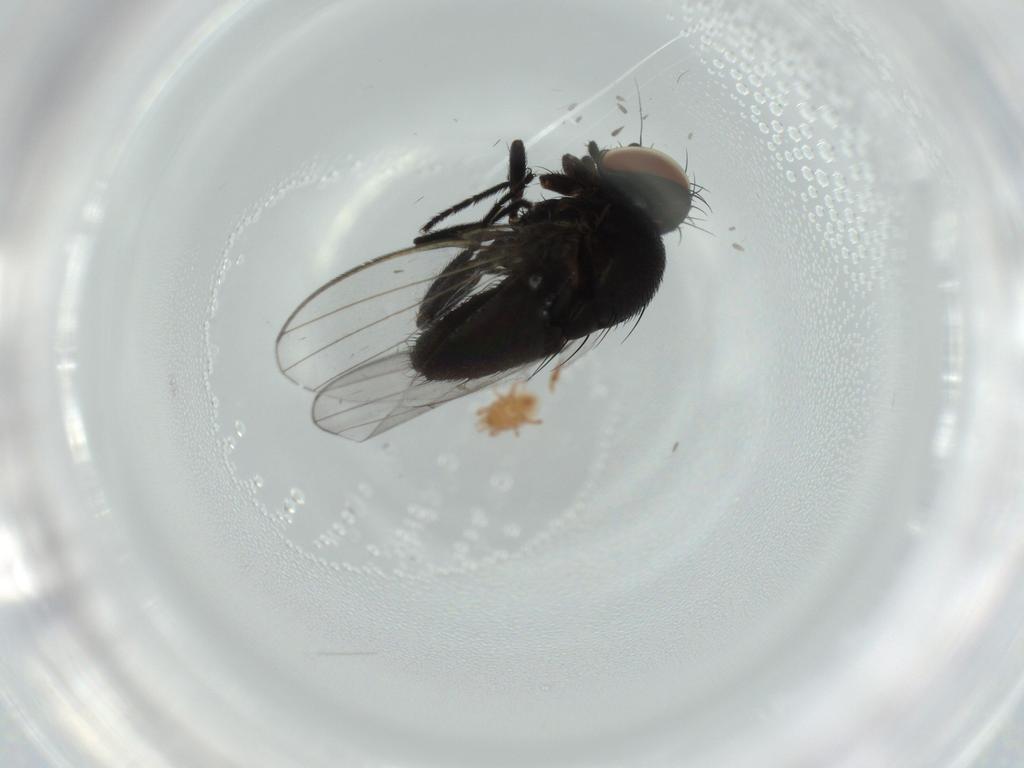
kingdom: Animalia
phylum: Arthropoda
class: Insecta
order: Diptera
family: Milichiidae
